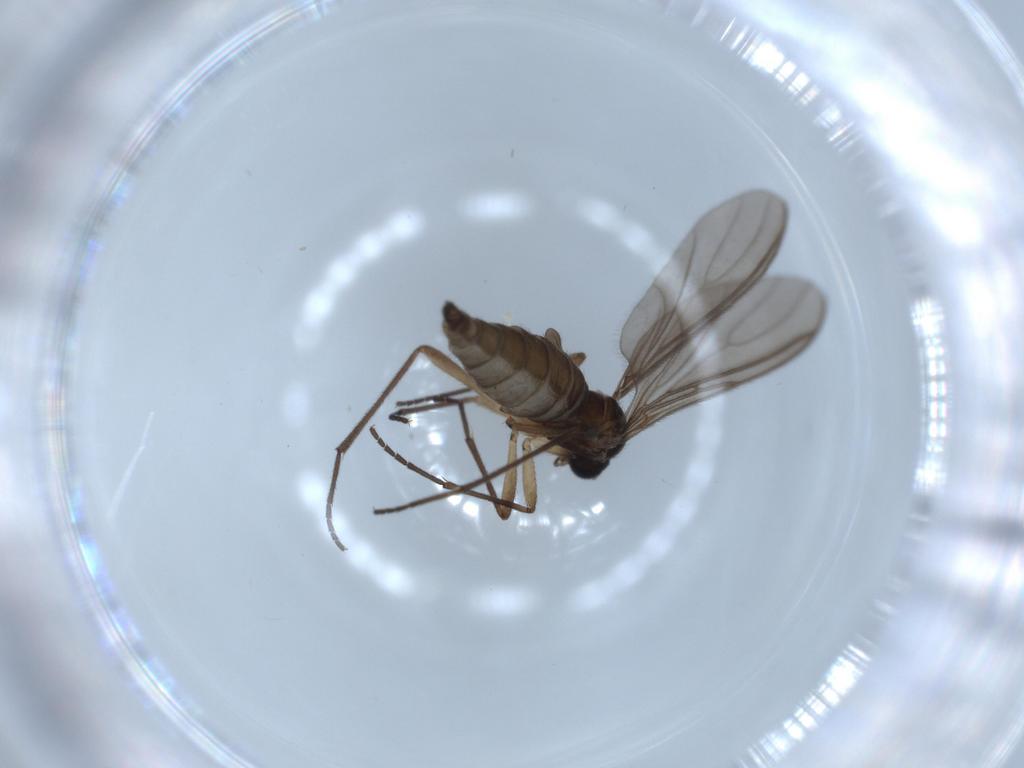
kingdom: Animalia
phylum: Arthropoda
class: Insecta
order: Diptera
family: Sciaridae
